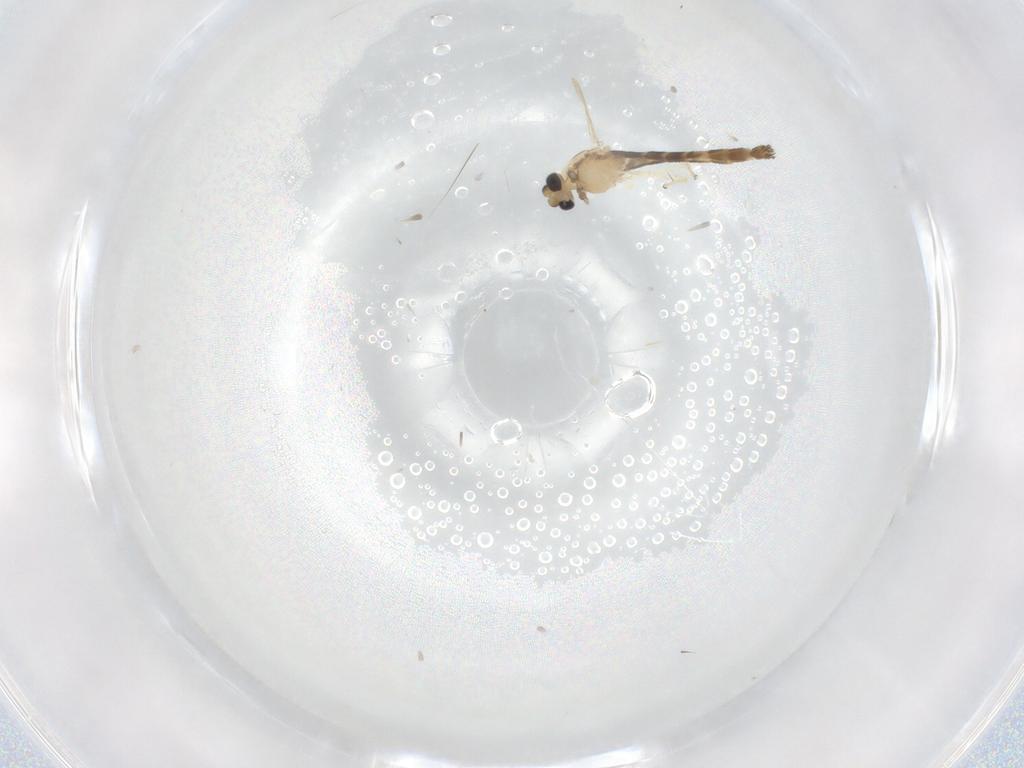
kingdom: Animalia
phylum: Arthropoda
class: Insecta
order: Diptera
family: Chironomidae
